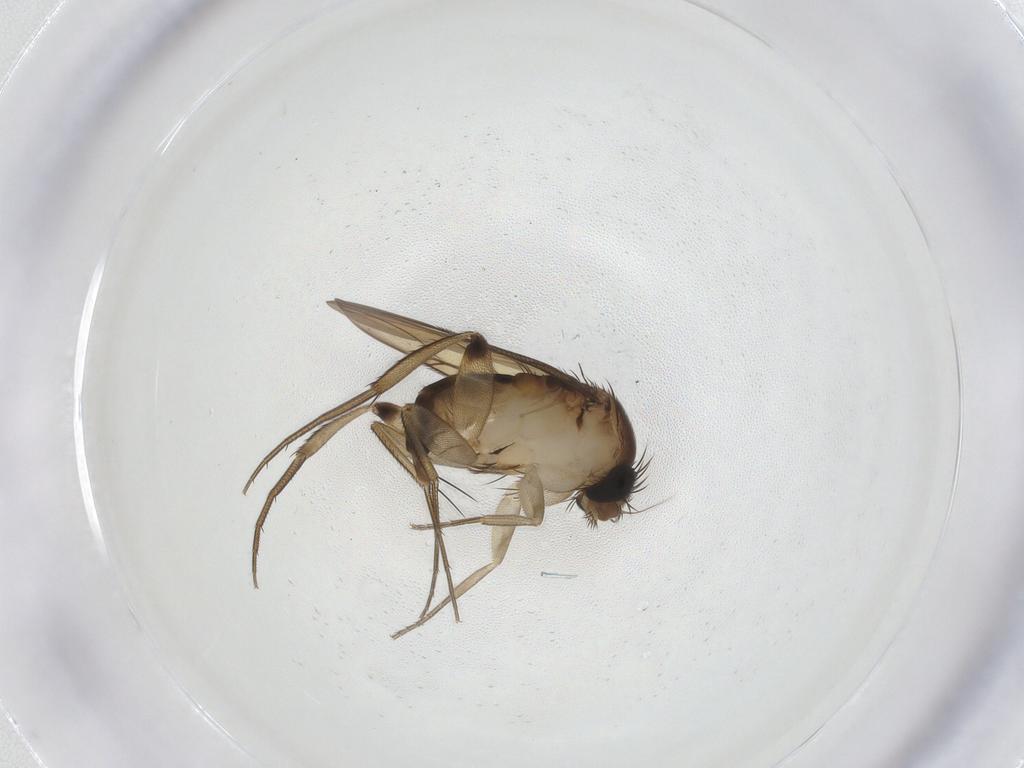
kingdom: Animalia
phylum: Arthropoda
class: Insecta
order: Diptera
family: Phoridae
